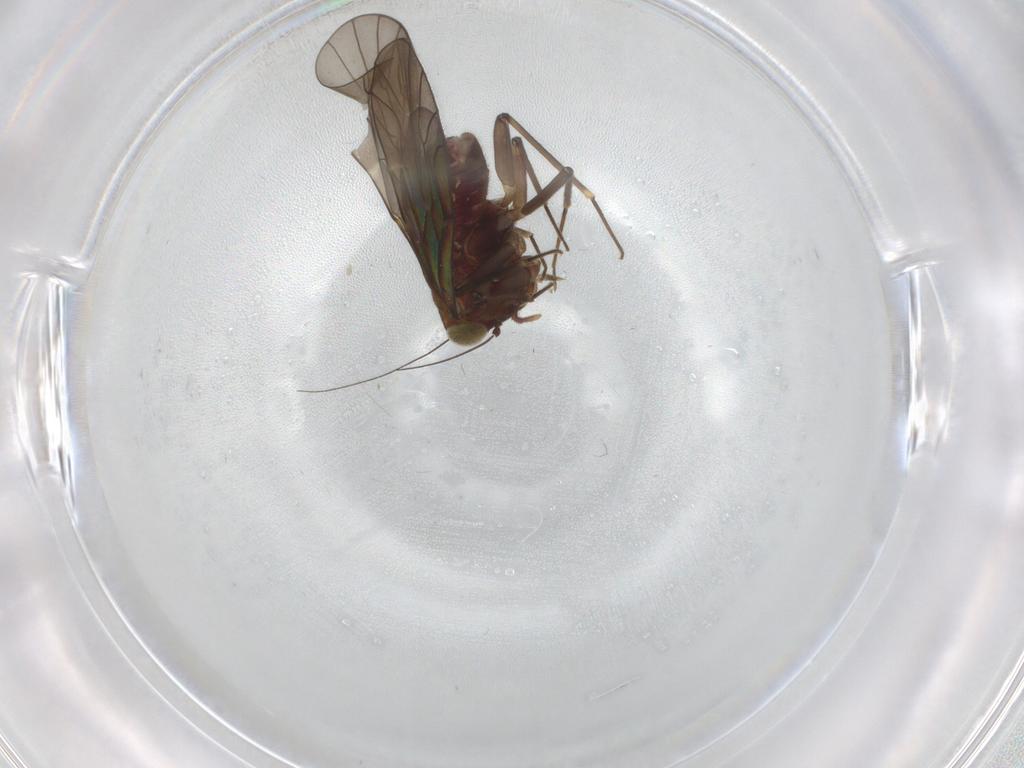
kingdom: Animalia
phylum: Arthropoda
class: Insecta
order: Psocodea
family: Philotarsidae
